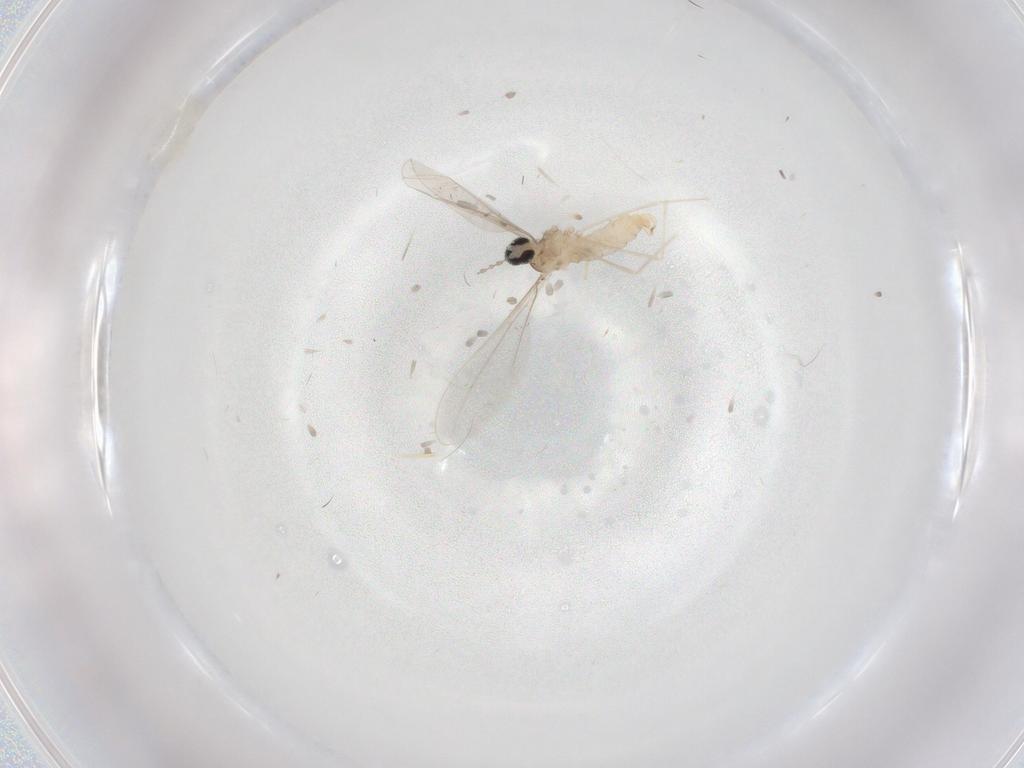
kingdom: Animalia
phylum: Arthropoda
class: Insecta
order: Diptera
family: Cecidomyiidae
